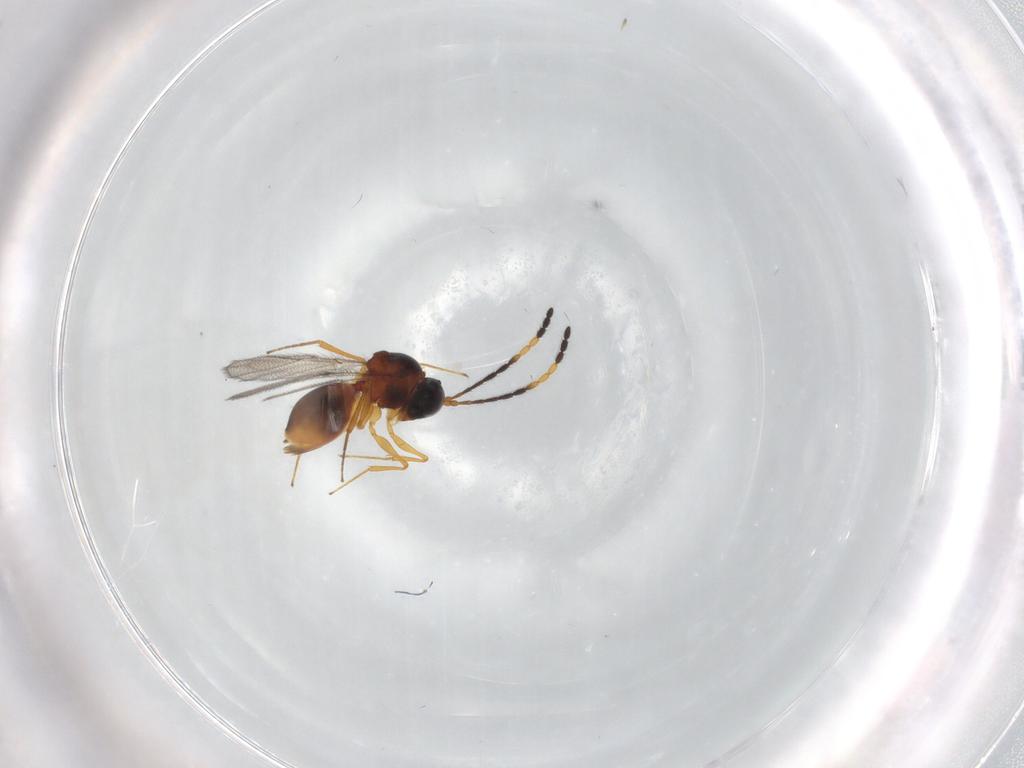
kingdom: Animalia
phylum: Arthropoda
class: Insecta
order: Hymenoptera
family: Figitidae
